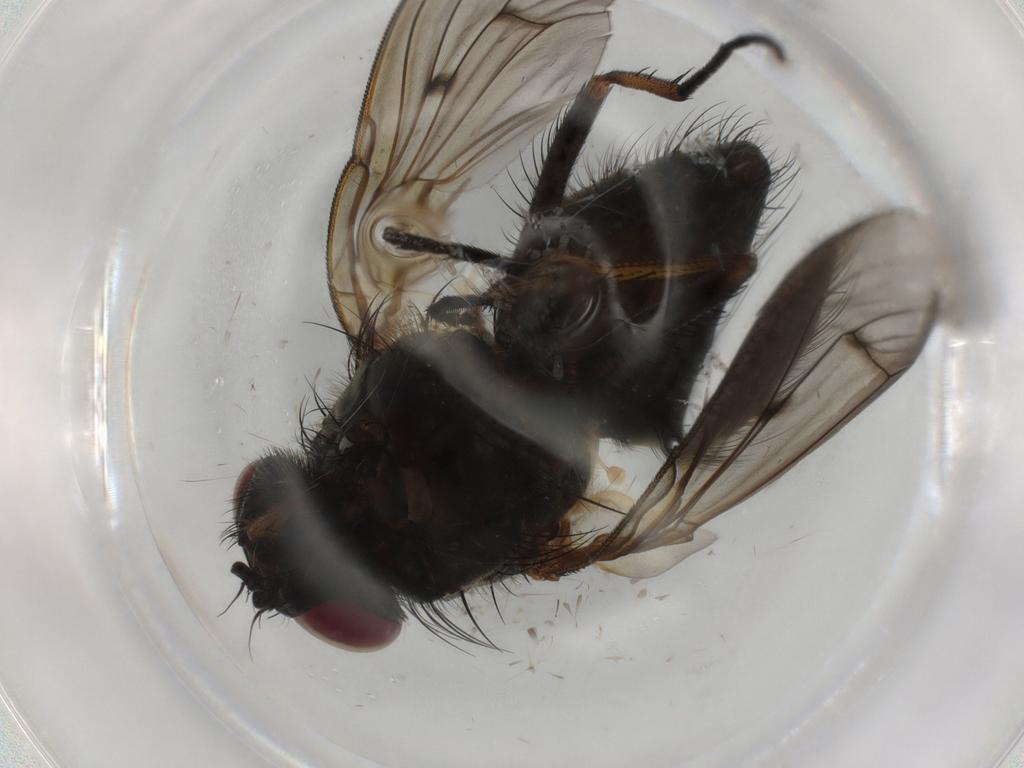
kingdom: Animalia
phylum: Arthropoda
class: Insecta
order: Diptera
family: Muscidae
